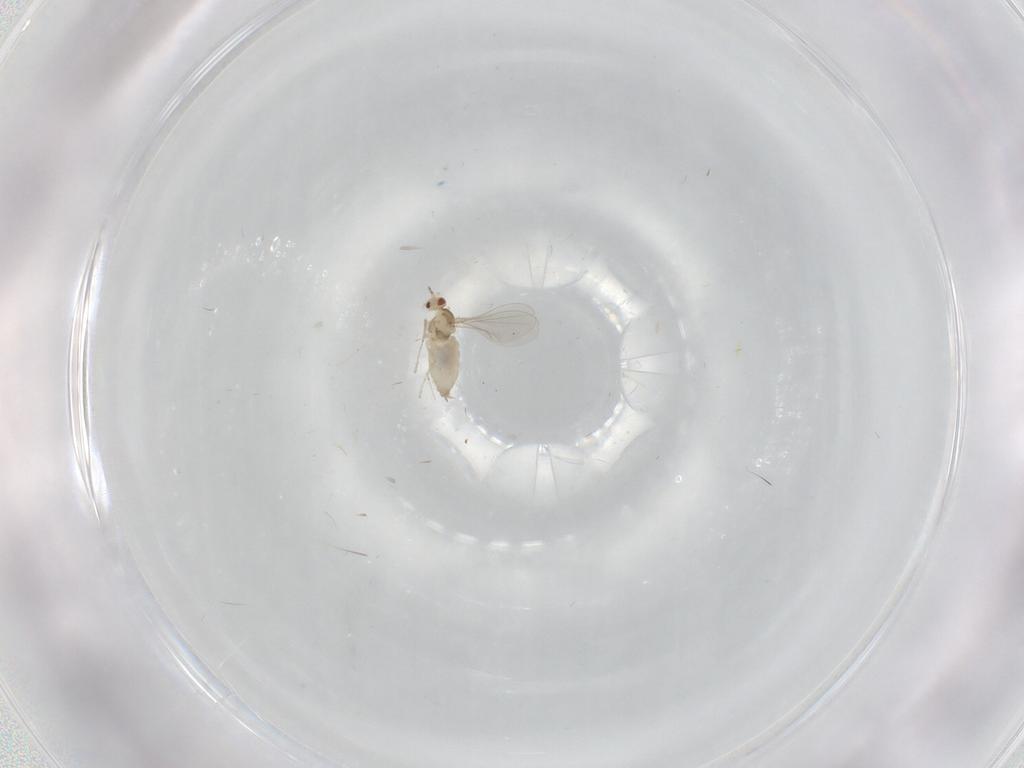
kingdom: Animalia
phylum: Arthropoda
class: Insecta
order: Diptera
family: Cecidomyiidae
